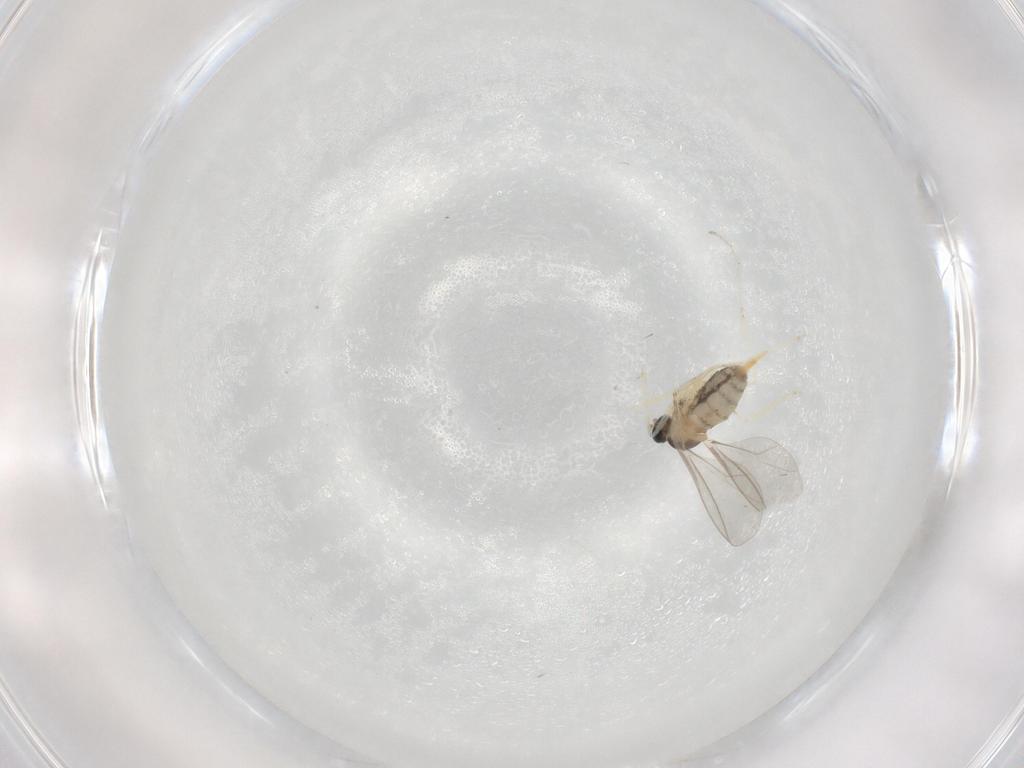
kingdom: Animalia
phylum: Arthropoda
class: Insecta
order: Diptera
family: Cecidomyiidae
